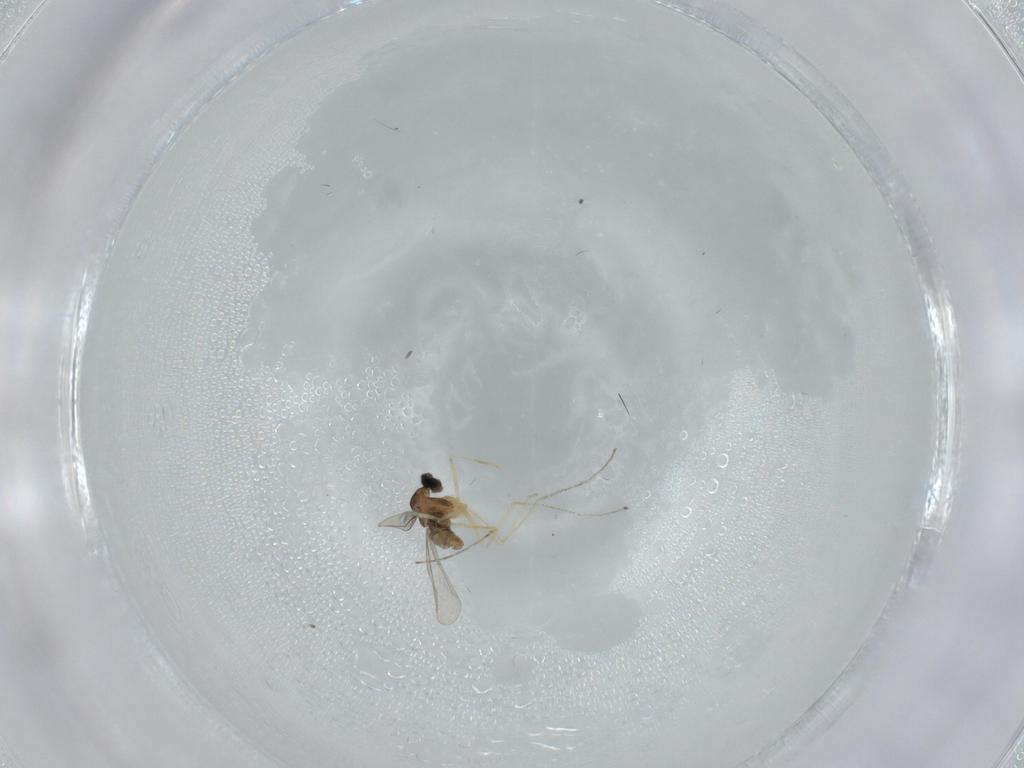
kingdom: Animalia
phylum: Arthropoda
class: Insecta
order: Diptera
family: Cecidomyiidae
